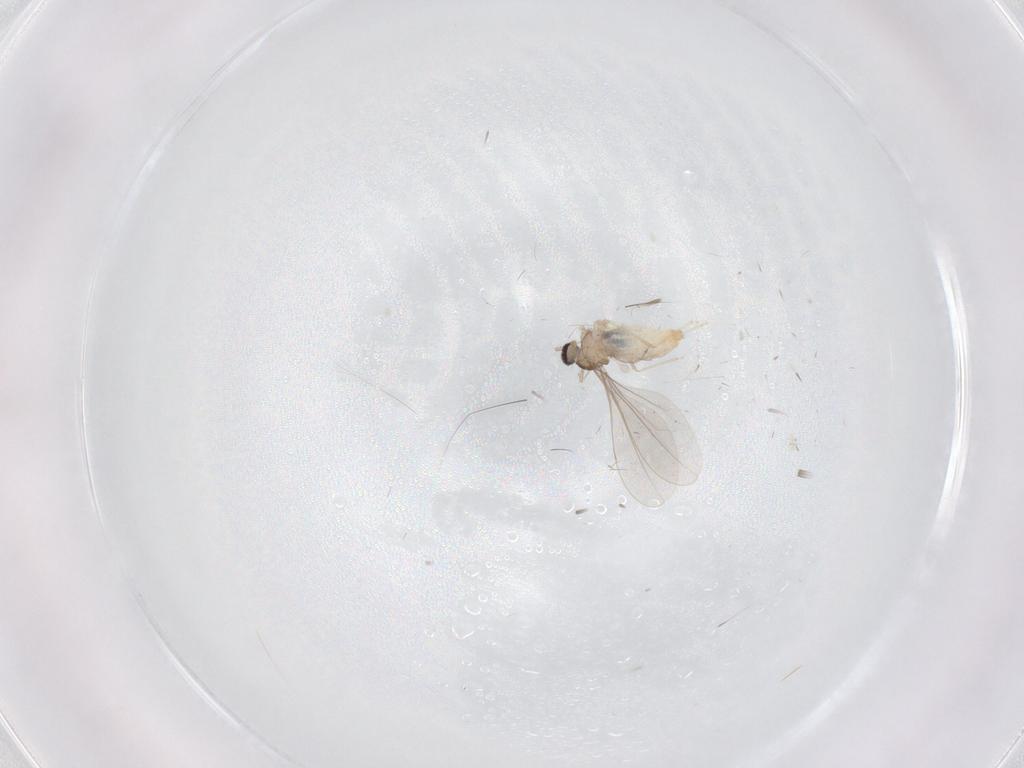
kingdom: Animalia
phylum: Arthropoda
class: Insecta
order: Diptera
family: Cecidomyiidae
